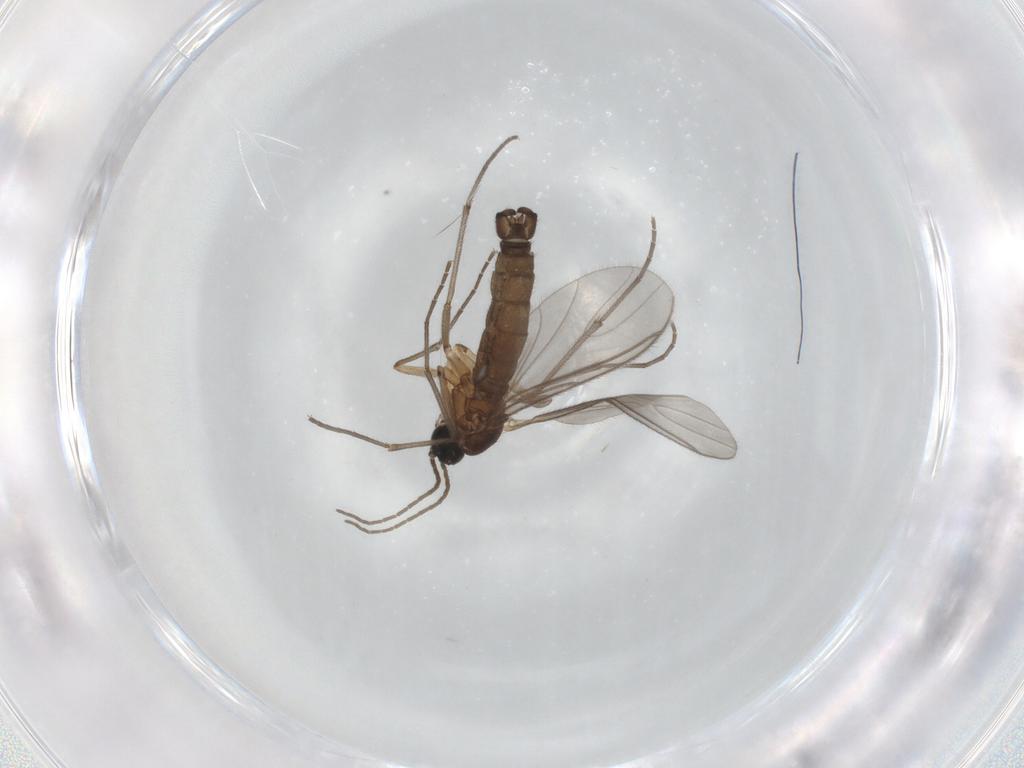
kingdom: Animalia
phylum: Arthropoda
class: Insecta
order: Diptera
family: Sciaridae
